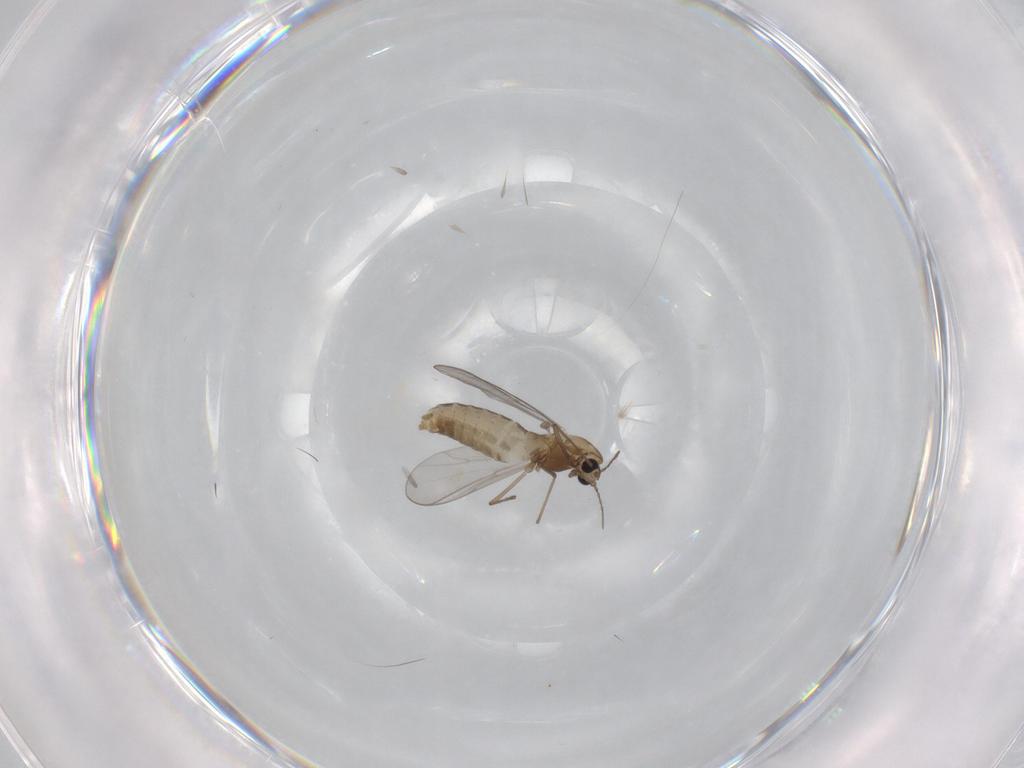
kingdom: Animalia
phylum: Arthropoda
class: Insecta
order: Diptera
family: Chironomidae
